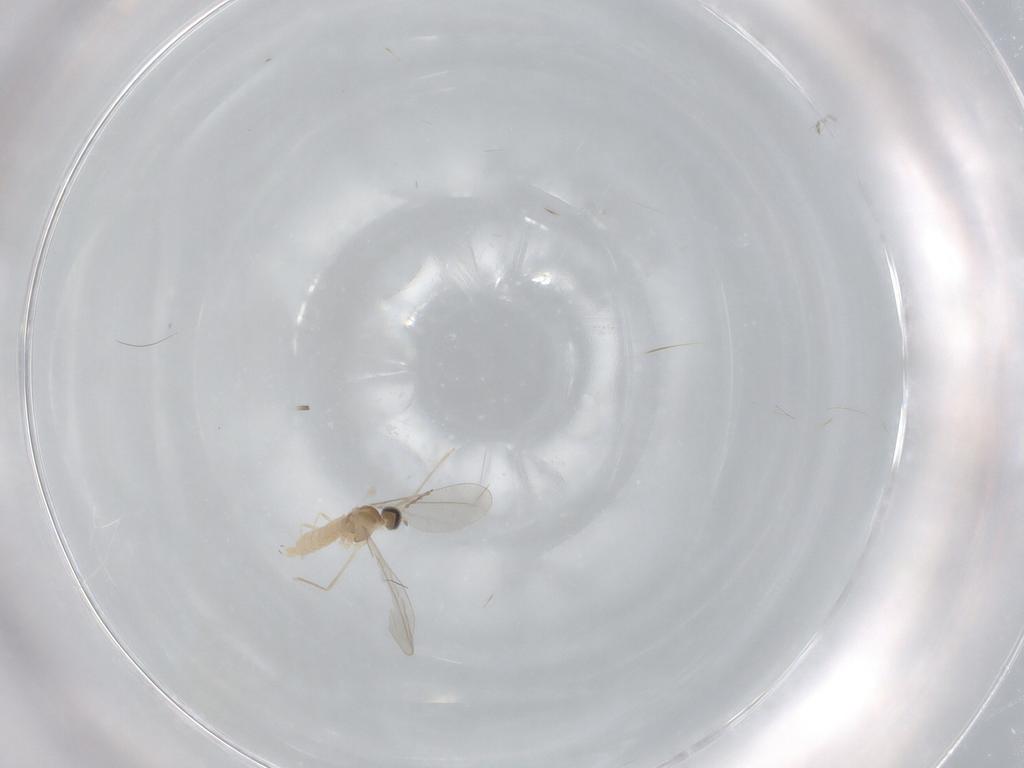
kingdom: Animalia
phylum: Arthropoda
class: Insecta
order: Diptera
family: Cecidomyiidae
